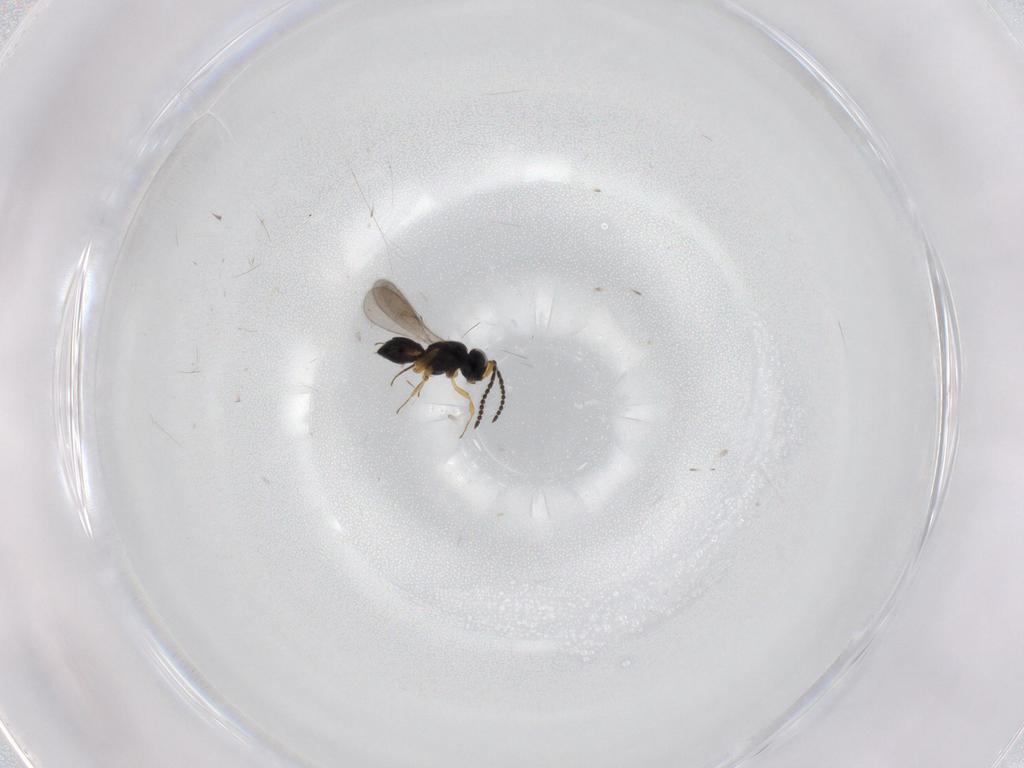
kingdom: Animalia
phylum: Arthropoda
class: Insecta
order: Hymenoptera
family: Scelionidae
